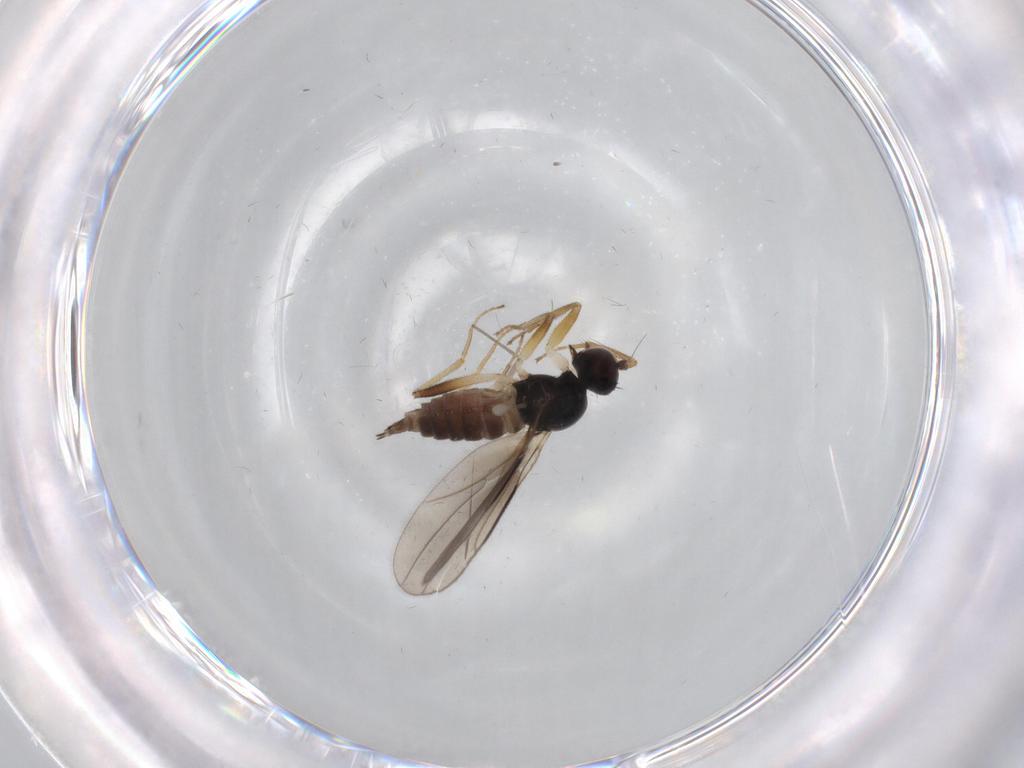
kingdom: Animalia
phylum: Arthropoda
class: Insecta
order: Diptera
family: Hybotidae
